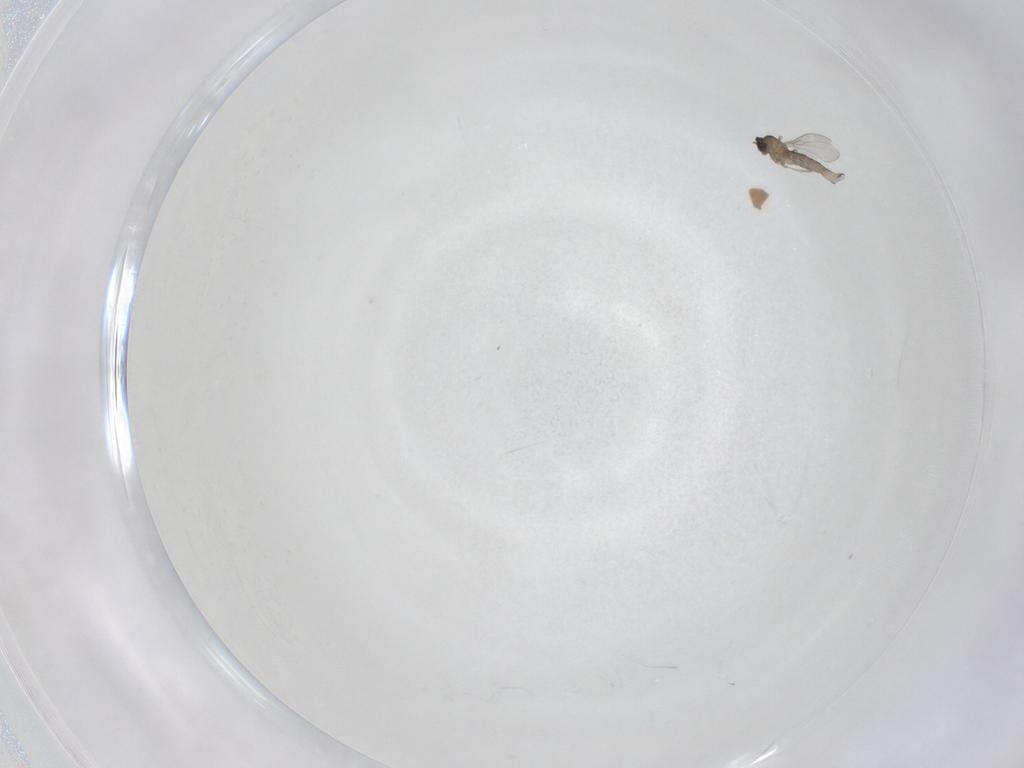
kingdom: Animalia
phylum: Arthropoda
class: Insecta
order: Diptera
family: Cecidomyiidae
